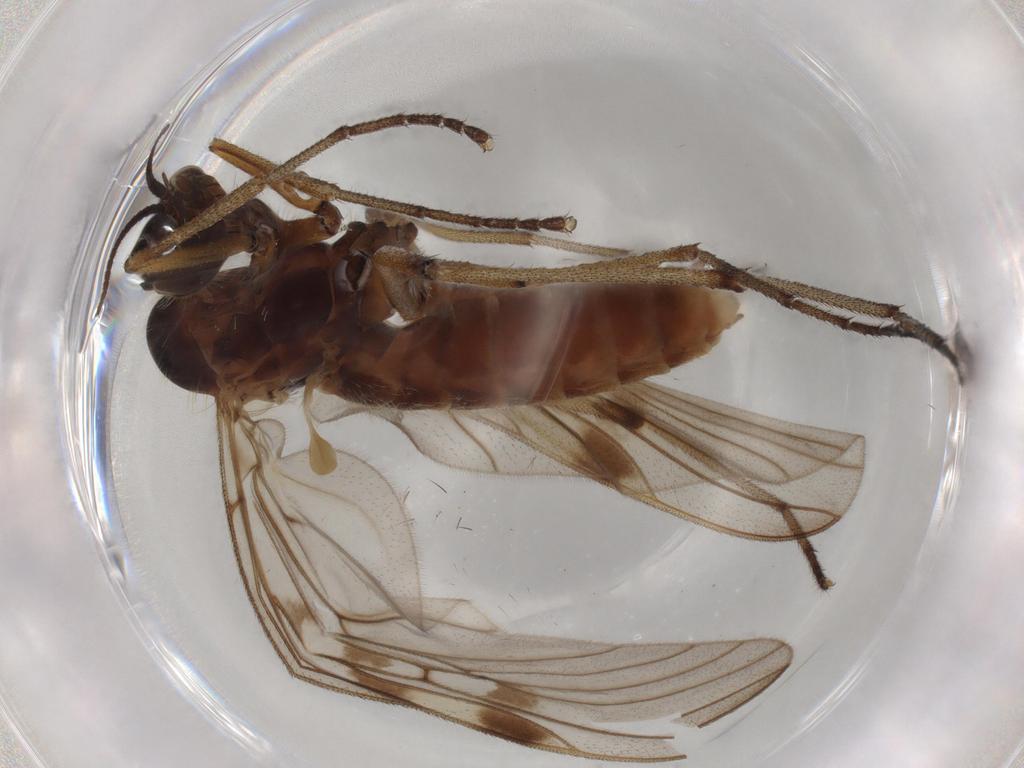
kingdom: Animalia
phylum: Arthropoda
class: Insecta
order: Diptera
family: Anisopodidae
